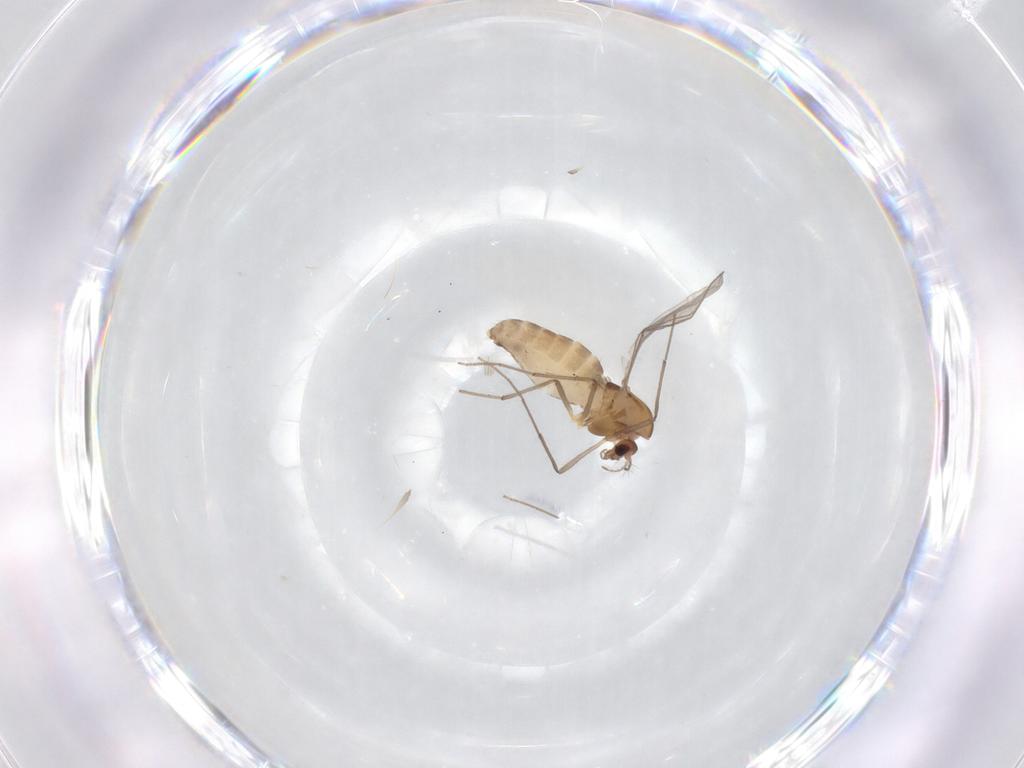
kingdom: Animalia
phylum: Arthropoda
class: Insecta
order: Diptera
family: Chironomidae
